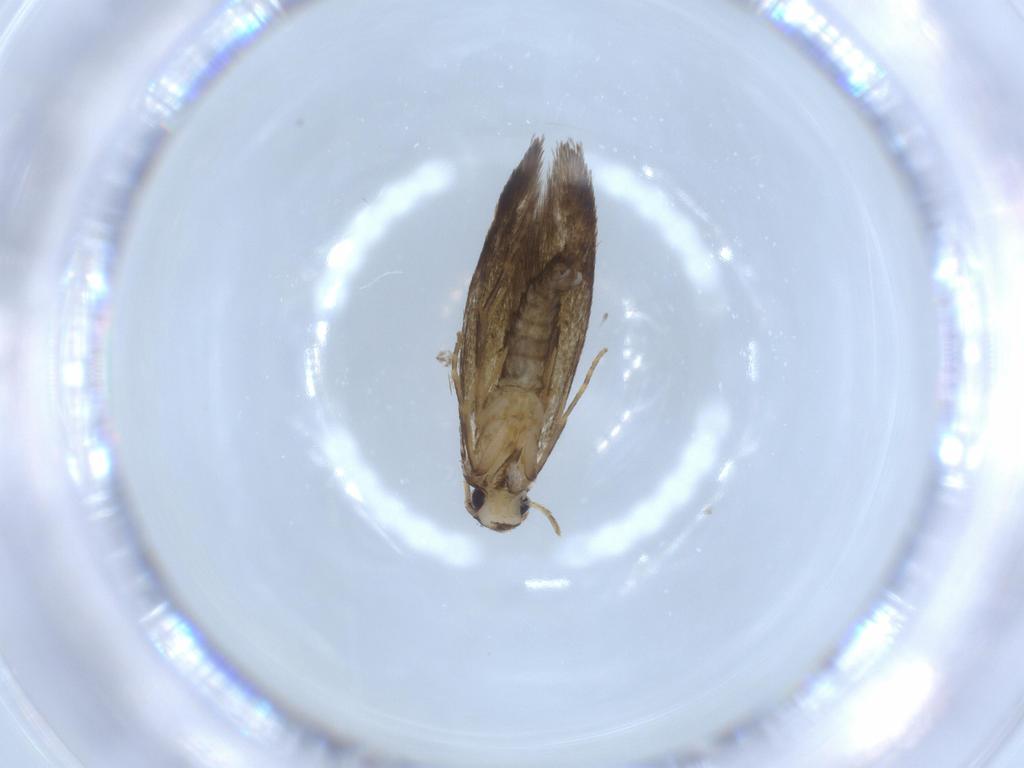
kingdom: Animalia
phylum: Arthropoda
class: Insecta
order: Lepidoptera
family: Tineidae
